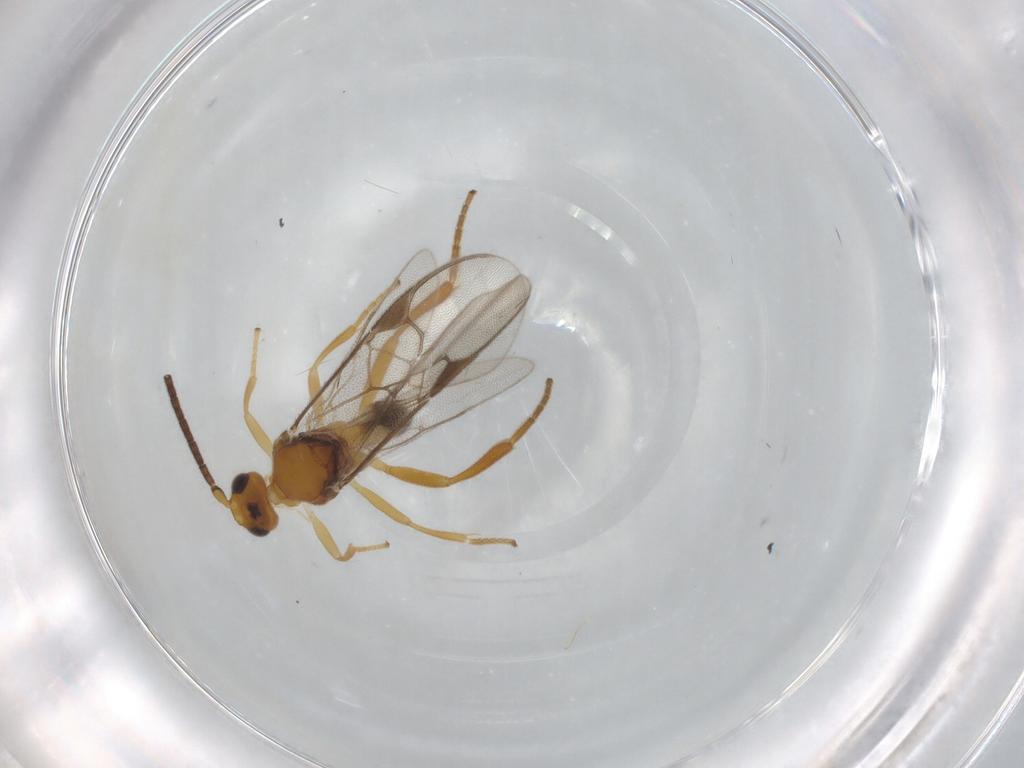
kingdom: Animalia
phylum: Arthropoda
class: Insecta
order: Hymenoptera
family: Braconidae
